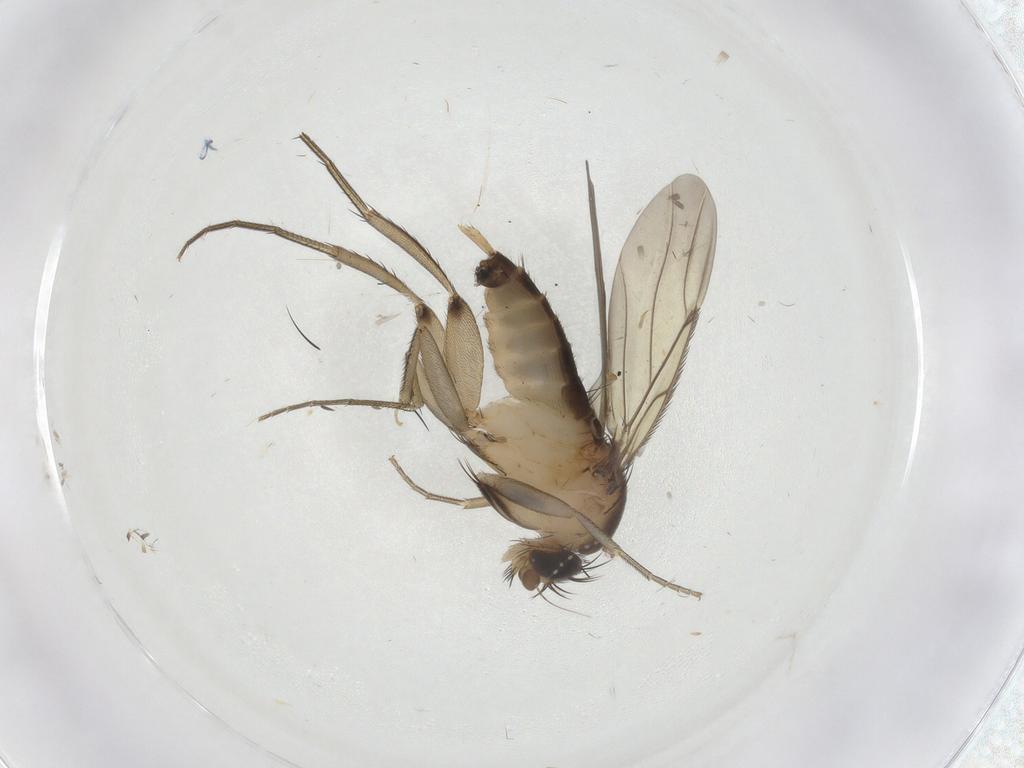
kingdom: Animalia
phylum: Arthropoda
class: Insecta
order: Diptera
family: Phoridae
